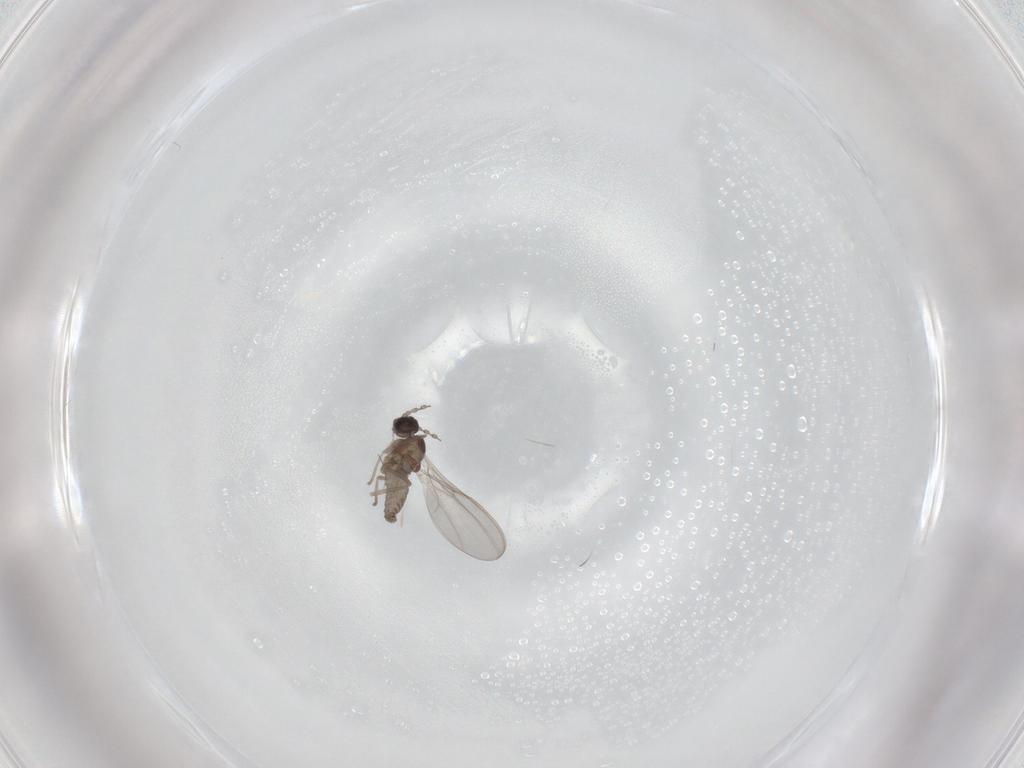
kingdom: Animalia
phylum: Arthropoda
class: Insecta
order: Diptera
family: Cecidomyiidae
